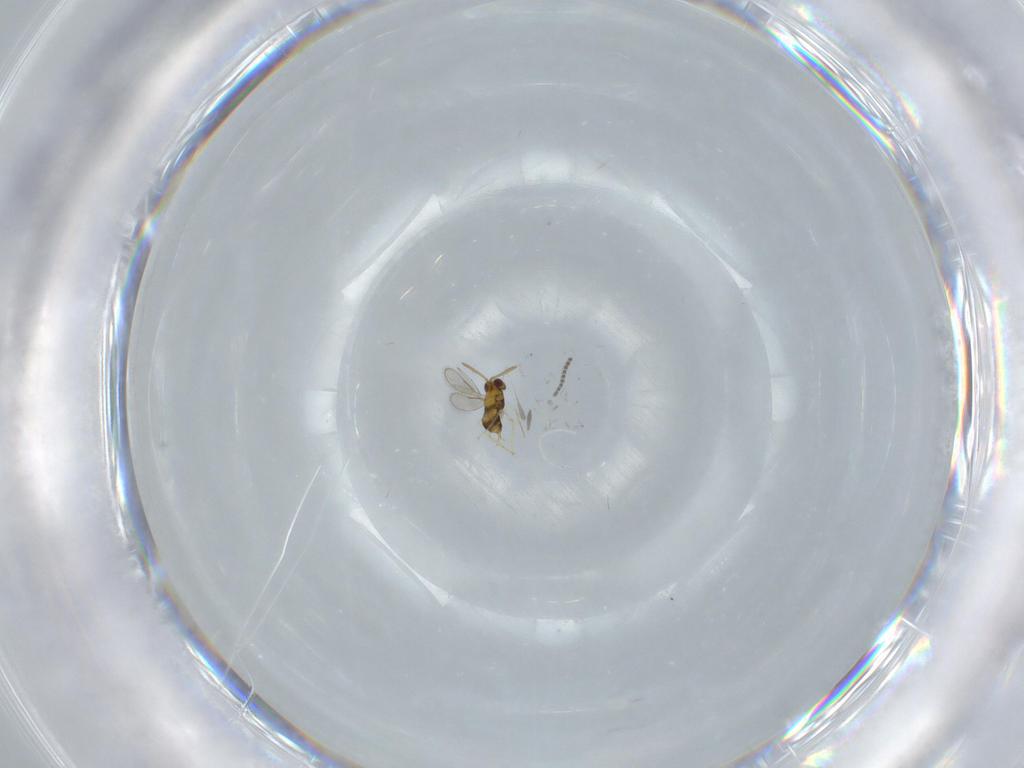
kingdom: Animalia
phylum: Arthropoda
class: Insecta
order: Hymenoptera
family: Aphelinidae
